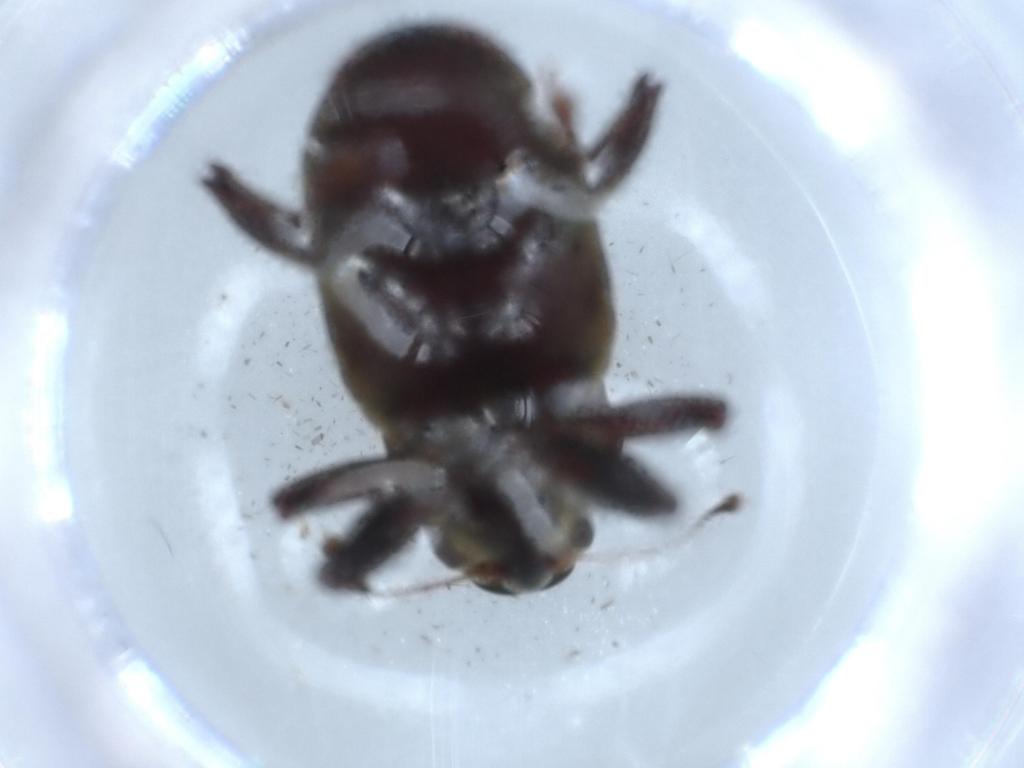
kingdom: Animalia
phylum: Arthropoda
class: Insecta
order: Coleoptera
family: Curculionidae
